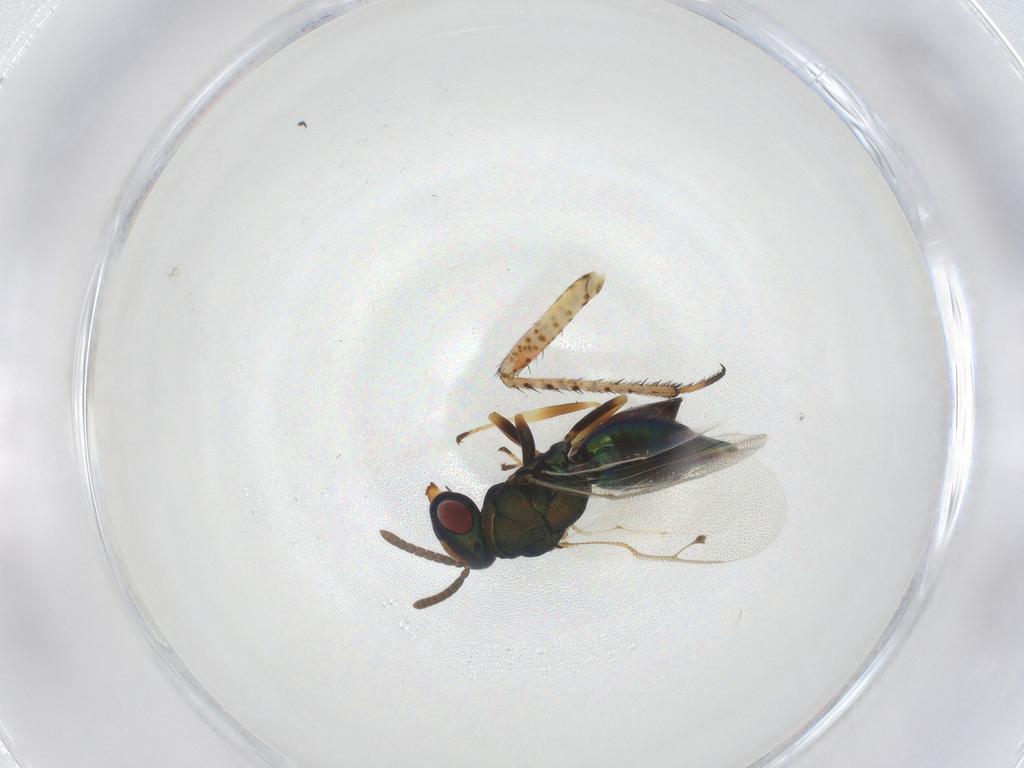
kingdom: Animalia
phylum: Arthropoda
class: Insecta
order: Hymenoptera
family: Pteromalidae
